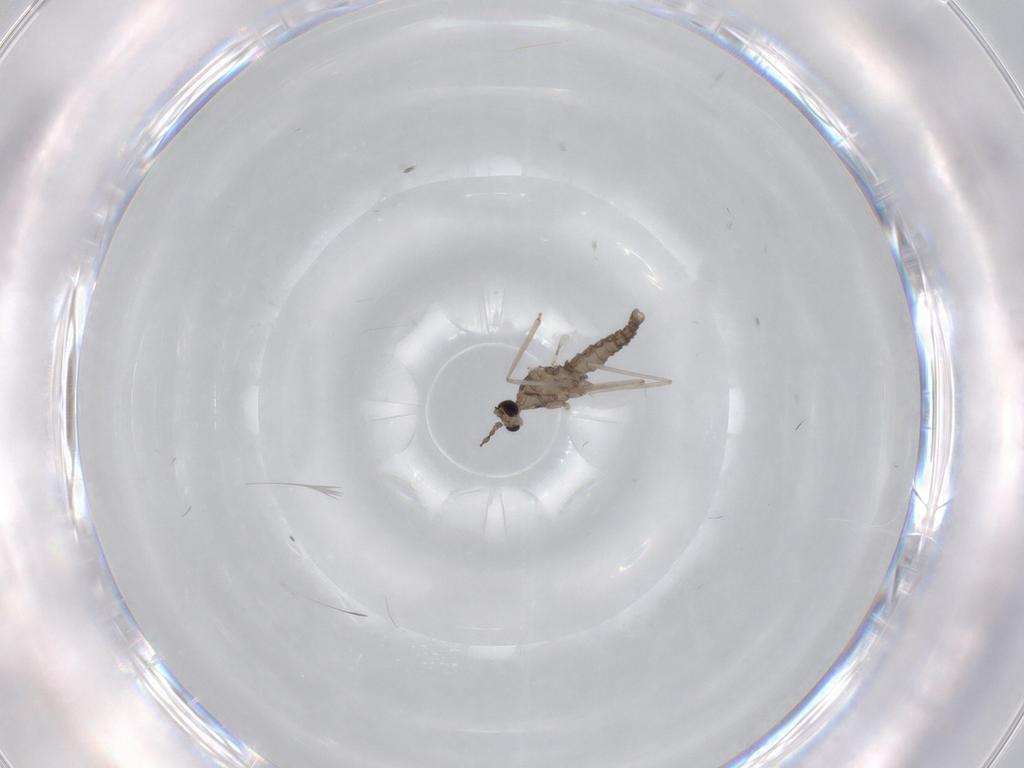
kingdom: Animalia
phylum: Arthropoda
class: Insecta
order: Diptera
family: Cecidomyiidae
